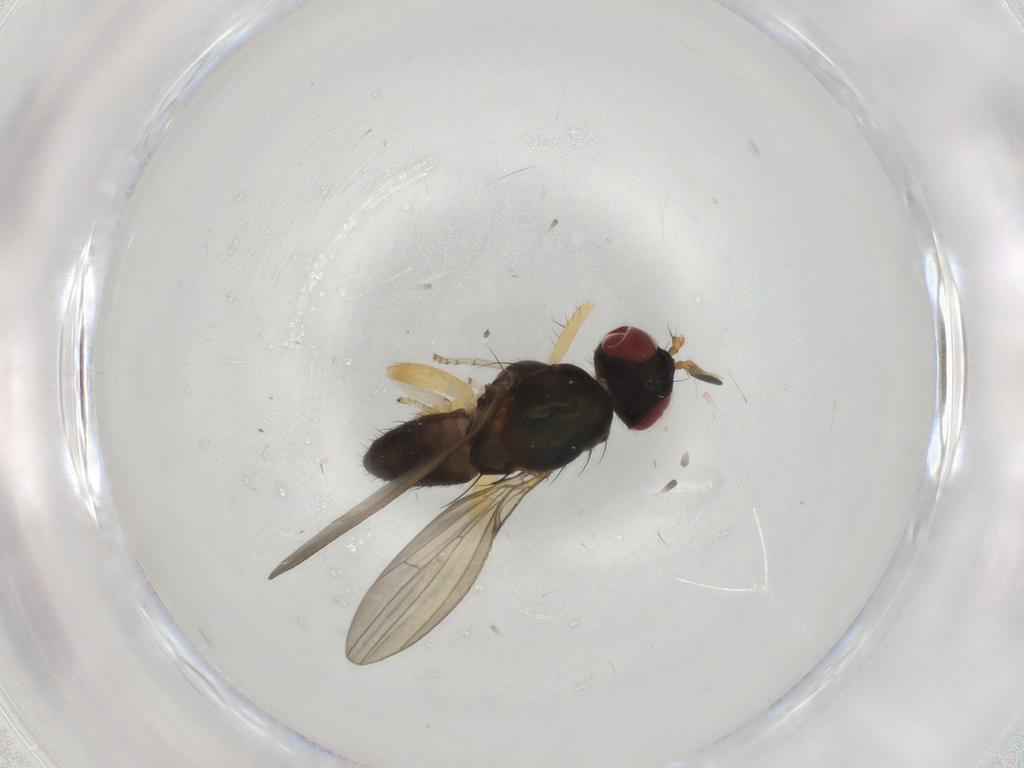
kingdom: Animalia
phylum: Arthropoda
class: Insecta
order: Diptera
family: Lauxaniidae
